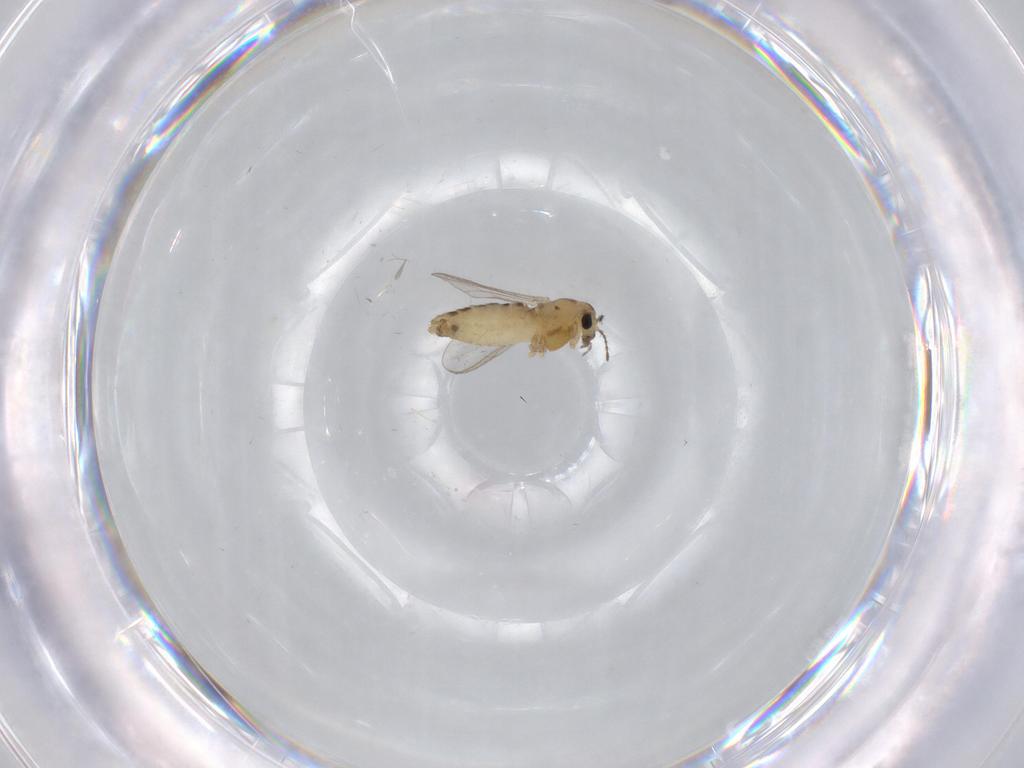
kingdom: Animalia
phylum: Arthropoda
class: Insecta
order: Diptera
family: Chironomidae
